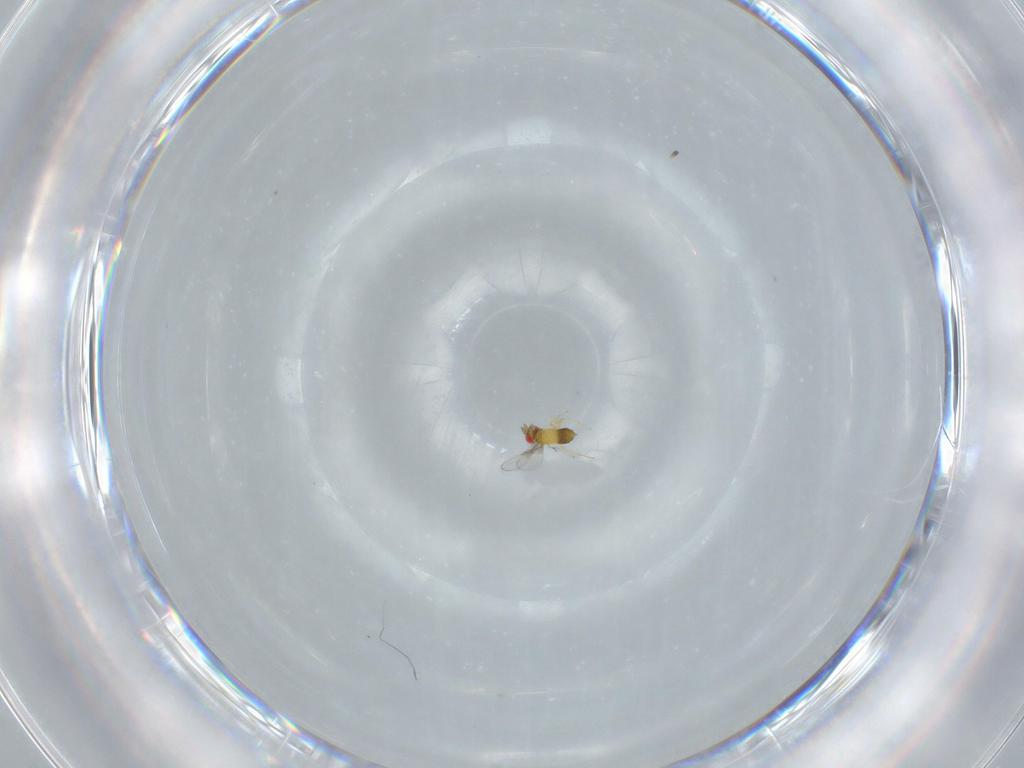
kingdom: Animalia
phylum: Arthropoda
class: Insecta
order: Hymenoptera
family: Trichogrammatidae
